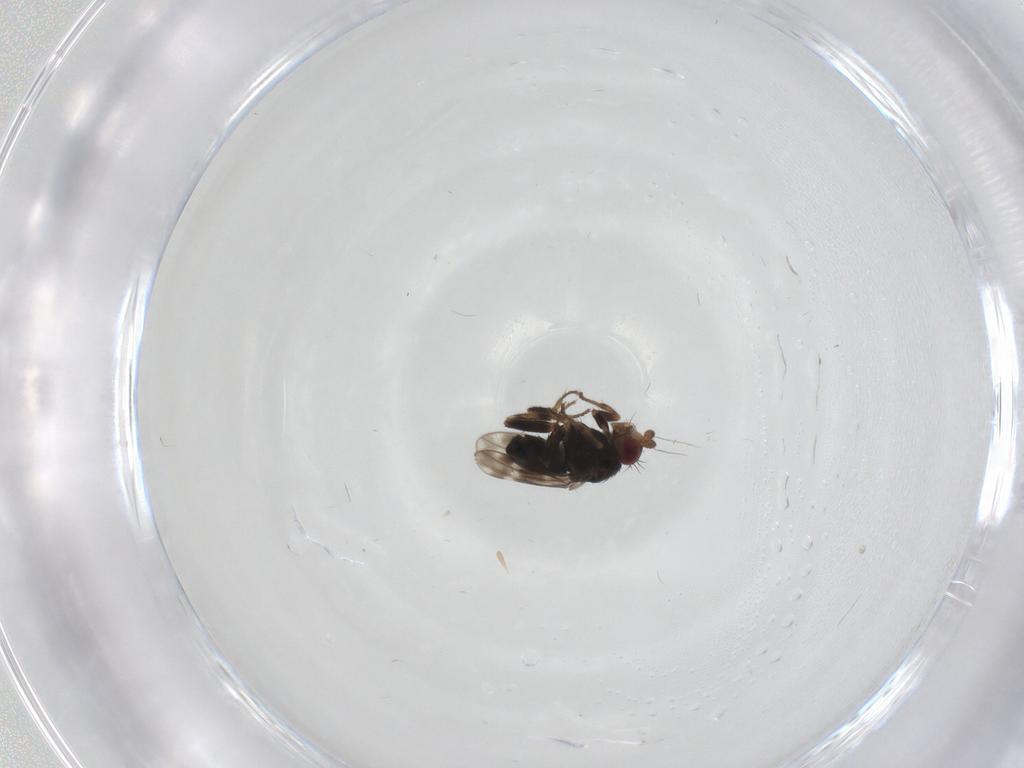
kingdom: Animalia
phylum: Arthropoda
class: Insecta
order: Diptera
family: Sphaeroceridae
